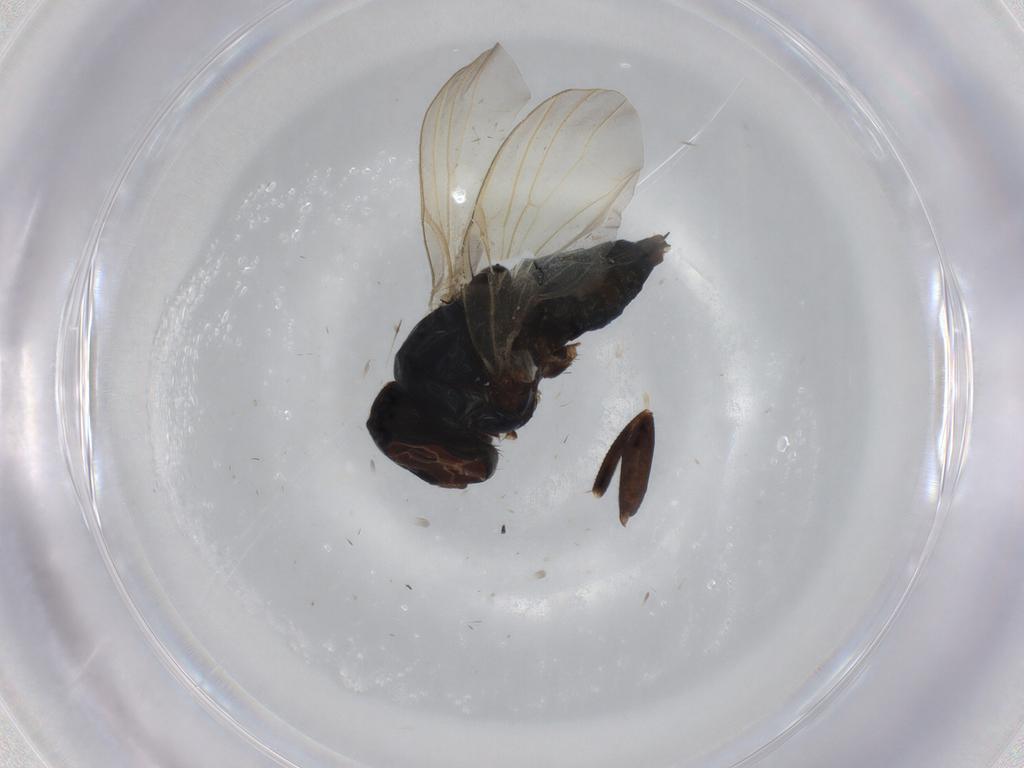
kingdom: Animalia
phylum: Arthropoda
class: Insecta
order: Diptera
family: Lonchaeidae
